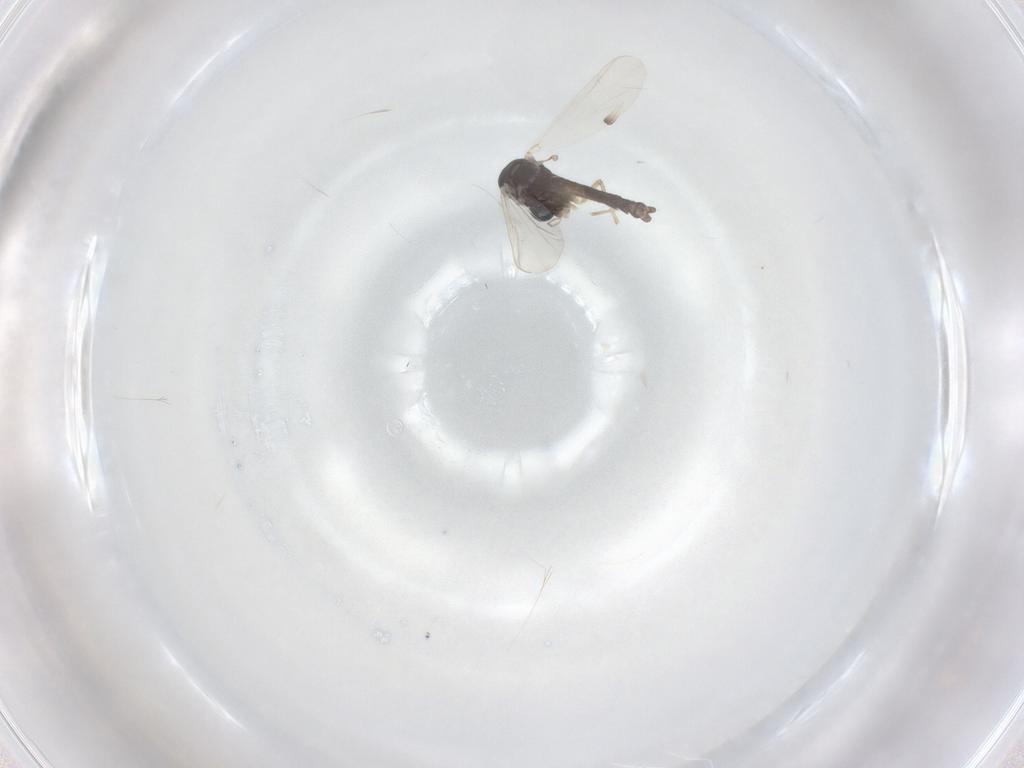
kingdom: Animalia
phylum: Arthropoda
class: Insecta
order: Diptera
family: Chironomidae
